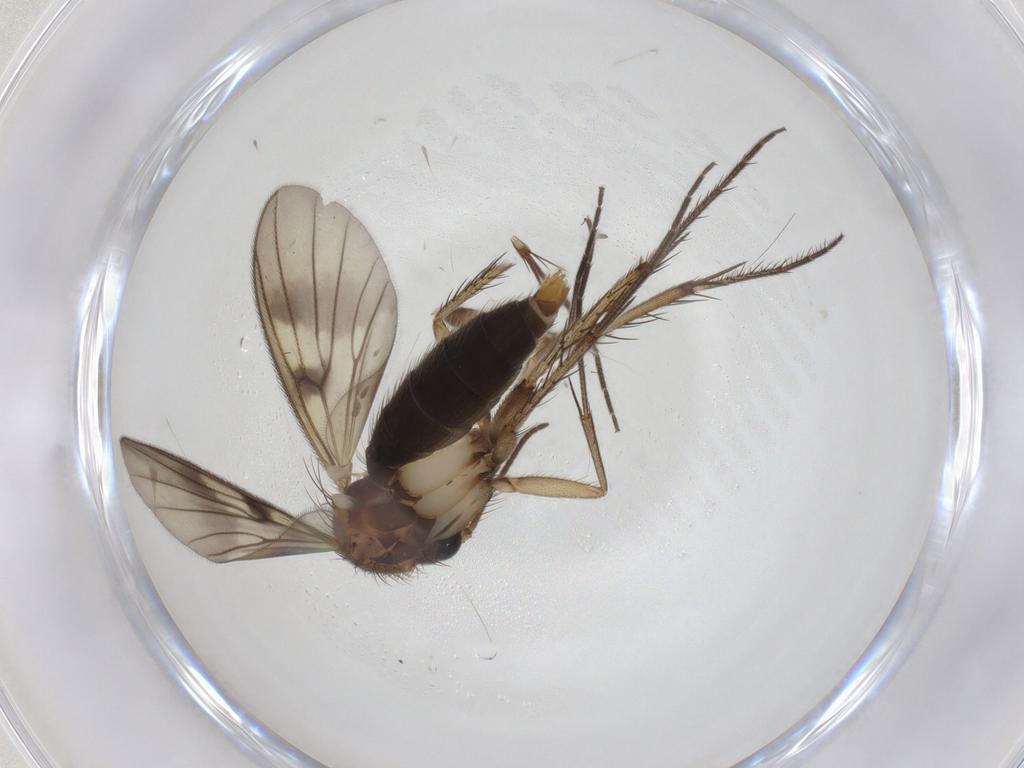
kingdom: Animalia
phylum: Arthropoda
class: Insecta
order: Diptera
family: Mycetophilidae
